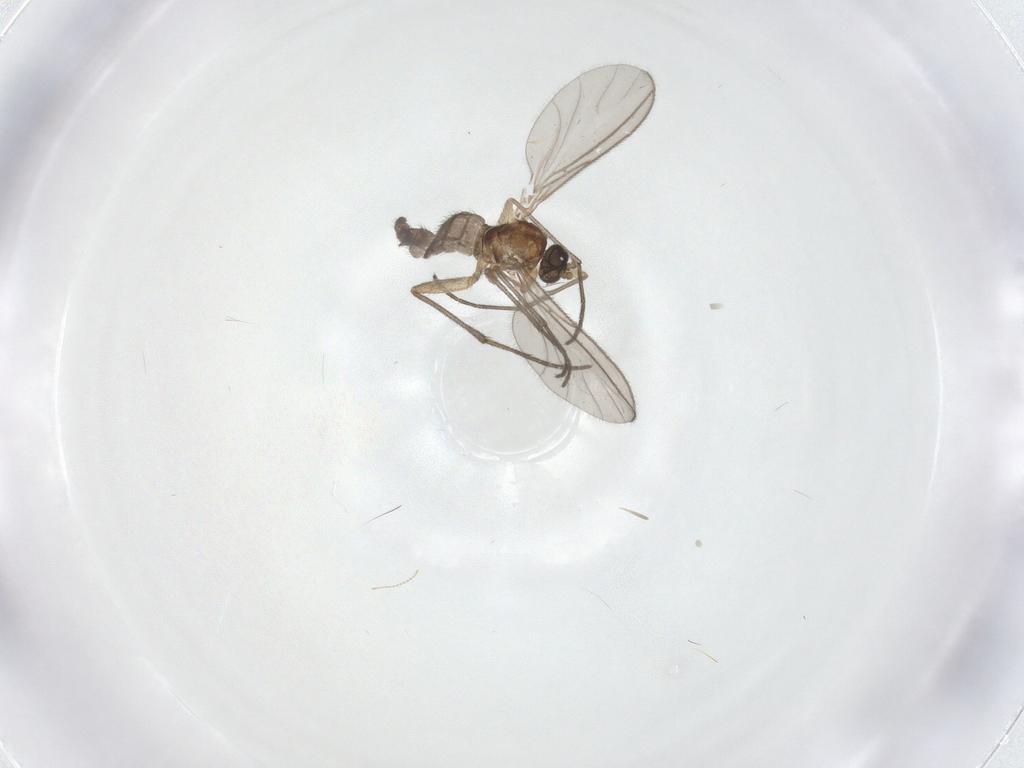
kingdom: Animalia
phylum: Arthropoda
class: Insecta
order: Diptera
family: Sciaridae
